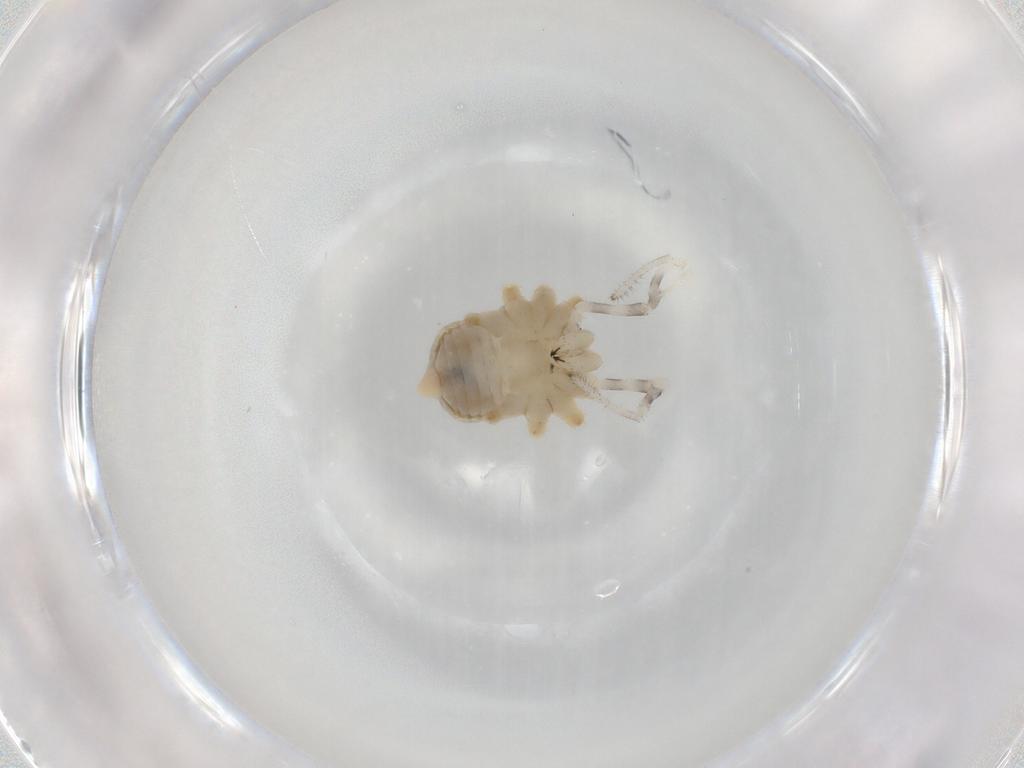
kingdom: Animalia
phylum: Arthropoda
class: Arachnida
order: Opiliones
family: Sclerosomatidae
